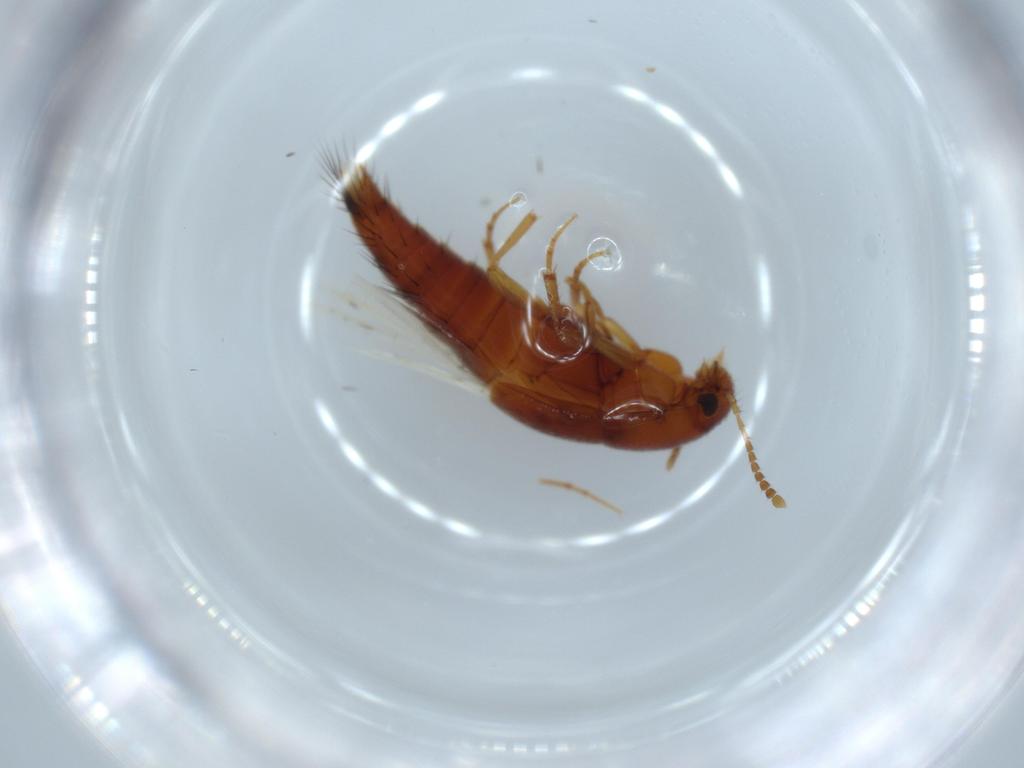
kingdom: Animalia
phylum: Arthropoda
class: Insecta
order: Coleoptera
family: Staphylinidae
